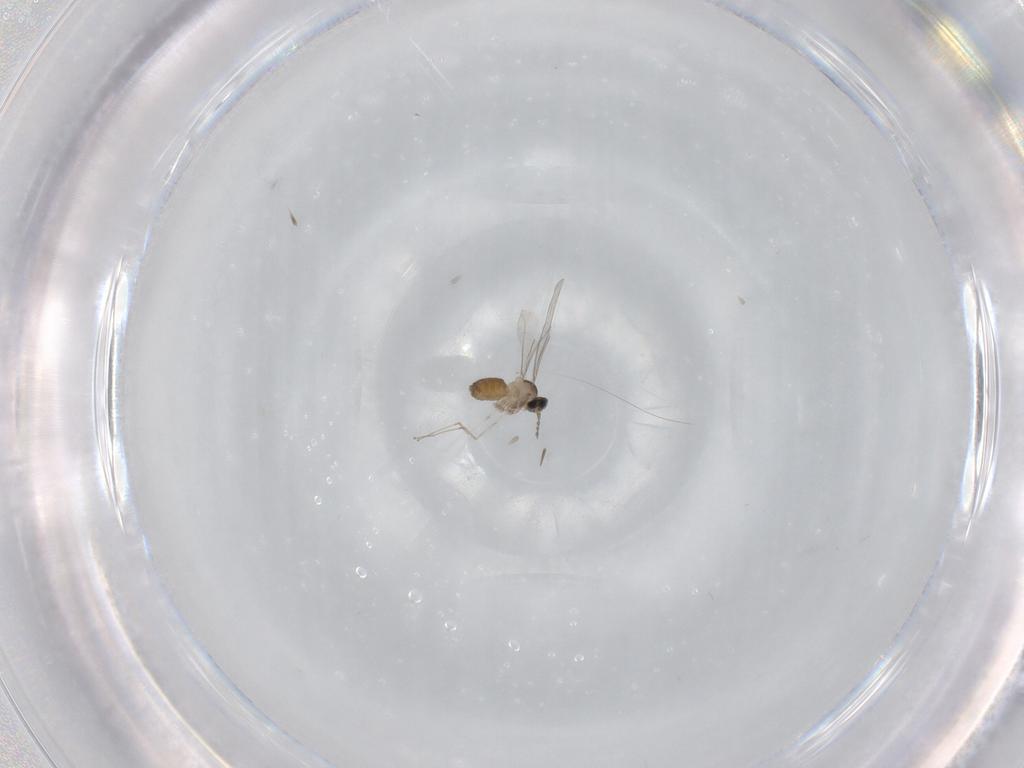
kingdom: Animalia
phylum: Arthropoda
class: Insecta
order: Diptera
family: Cecidomyiidae
